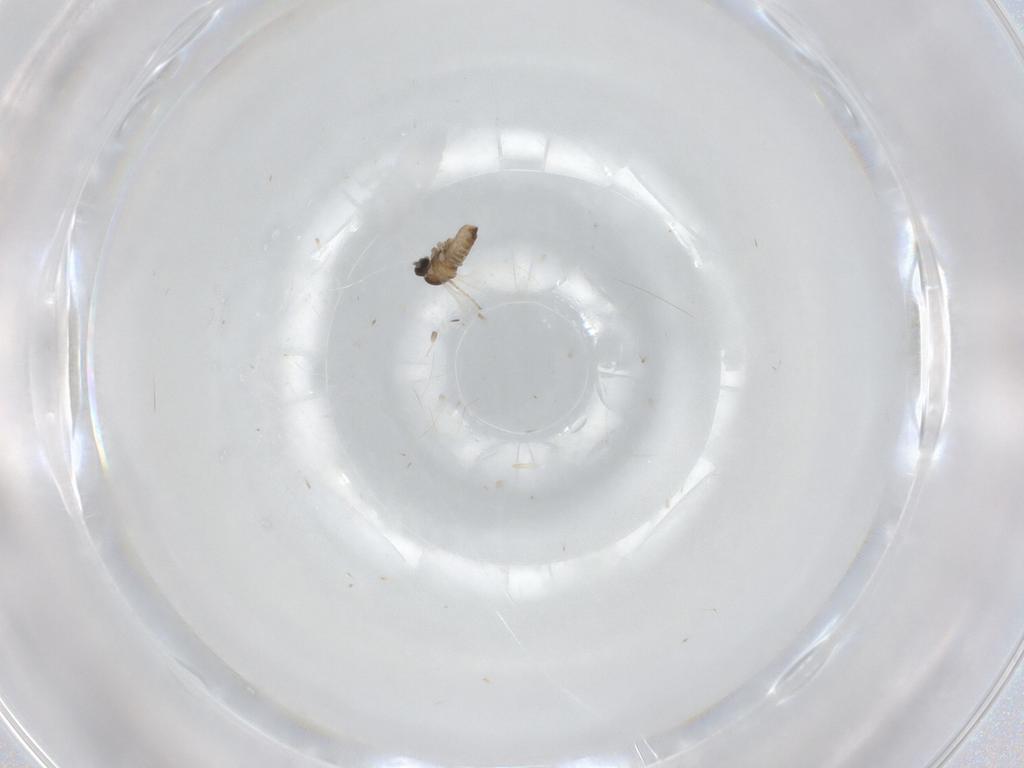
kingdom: Animalia
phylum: Arthropoda
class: Insecta
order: Diptera
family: Cecidomyiidae
